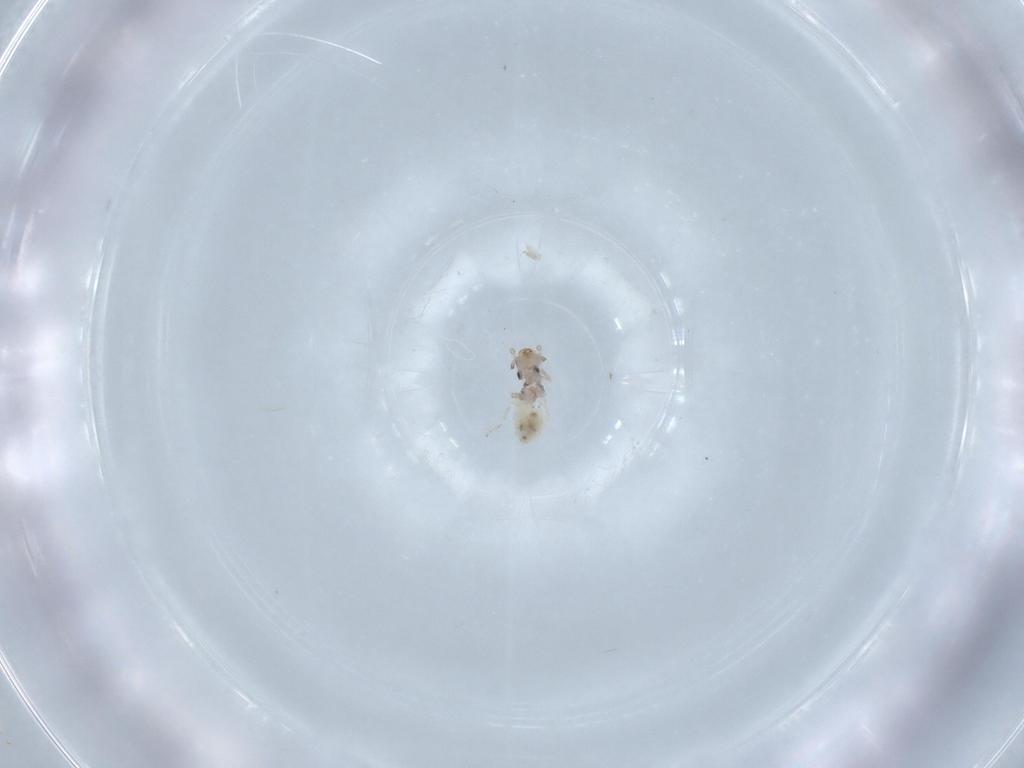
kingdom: Animalia
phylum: Arthropoda
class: Insecta
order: Psocodea
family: Lepidopsocidae
